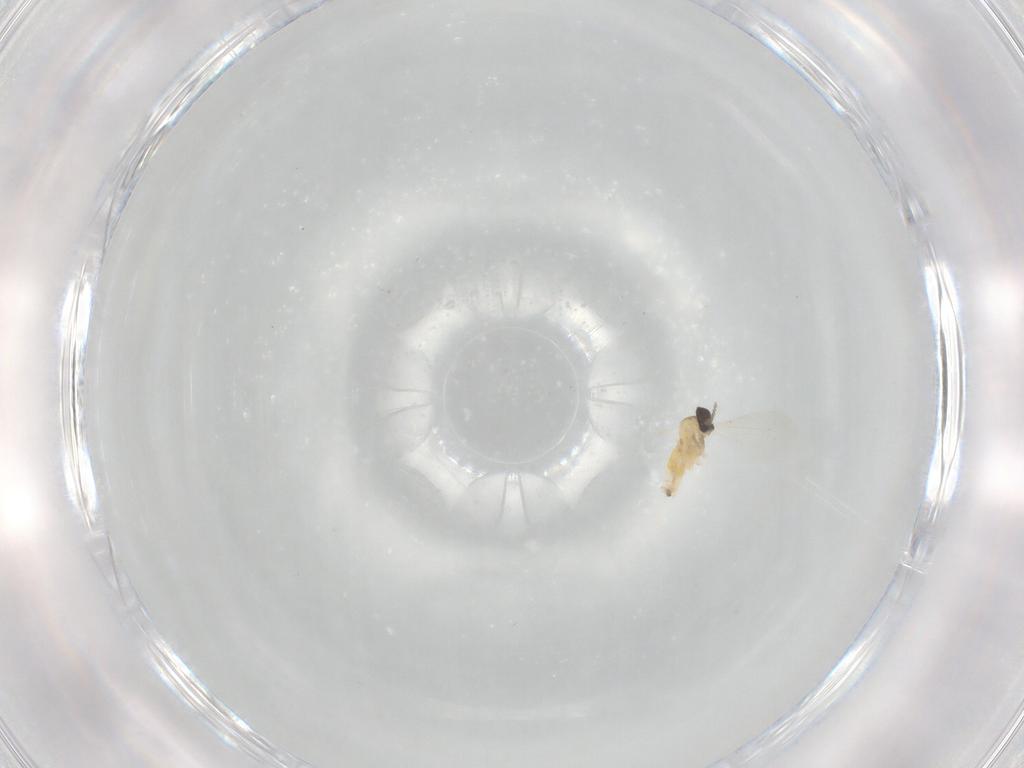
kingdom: Animalia
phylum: Arthropoda
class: Insecta
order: Diptera
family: Cecidomyiidae
